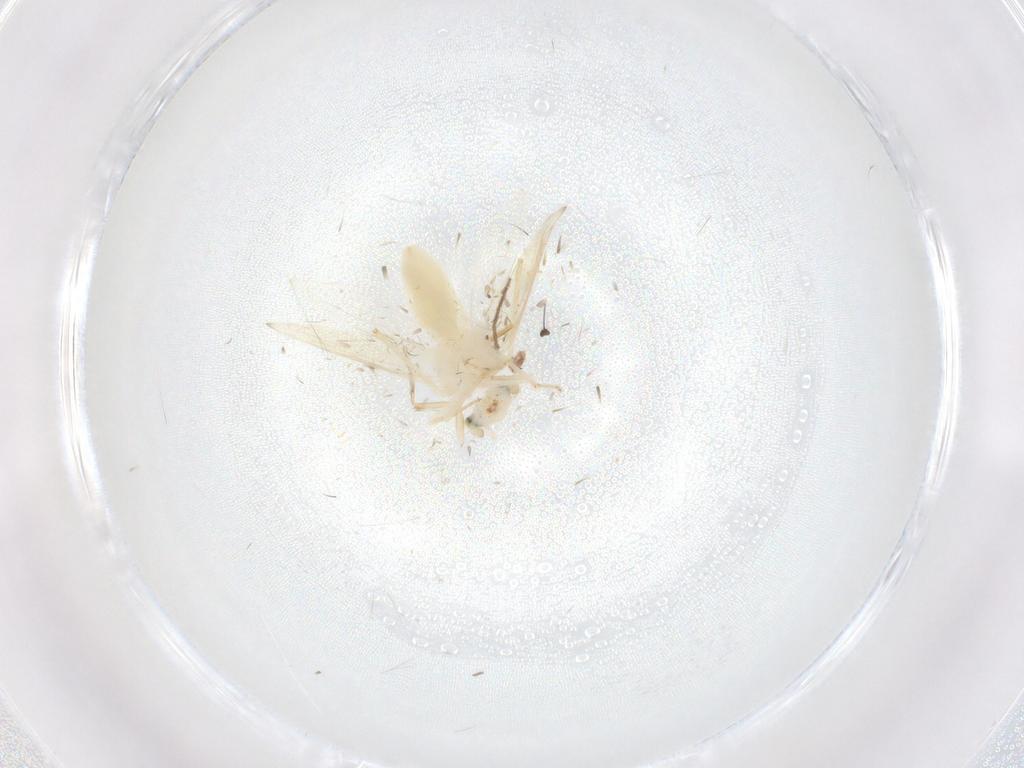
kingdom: Animalia
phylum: Arthropoda
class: Insecta
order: Psocodea
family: Lepidopsocidae
